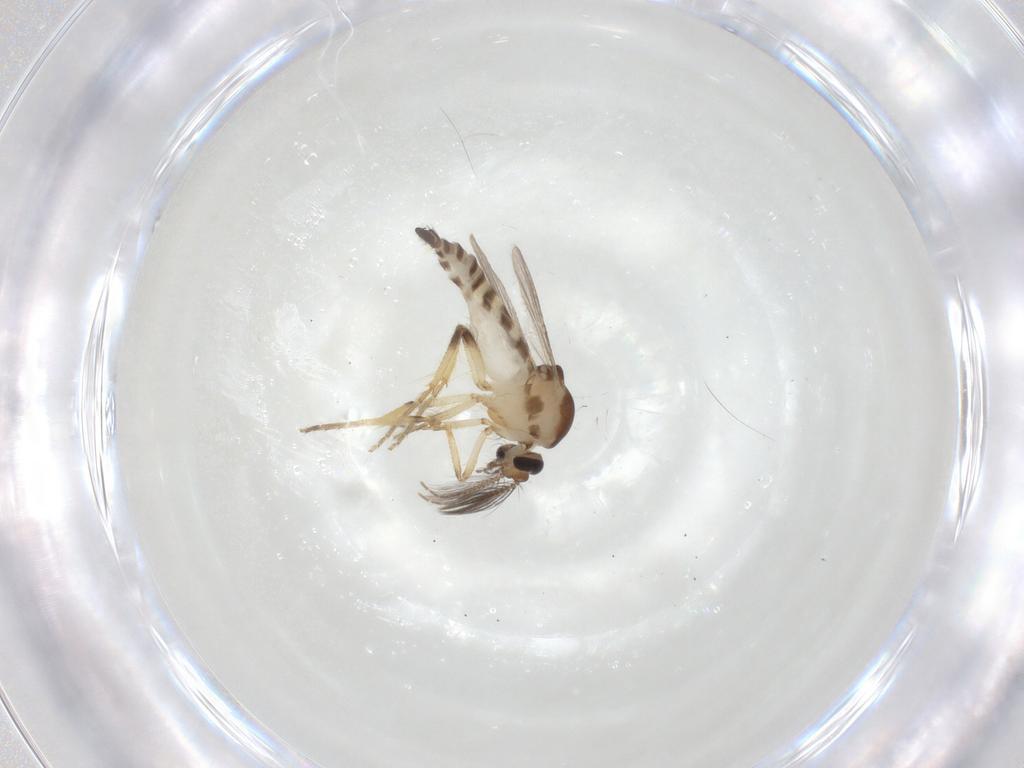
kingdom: Animalia
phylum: Arthropoda
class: Insecta
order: Diptera
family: Ceratopogonidae
